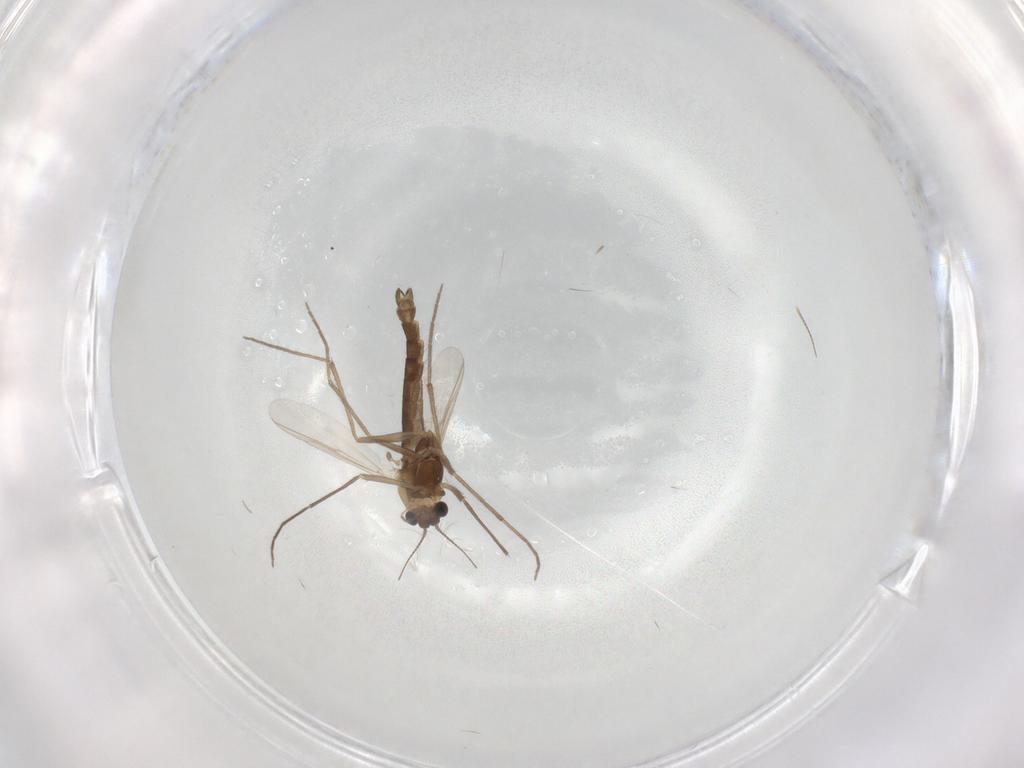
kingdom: Animalia
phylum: Arthropoda
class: Insecta
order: Diptera
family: Chironomidae
